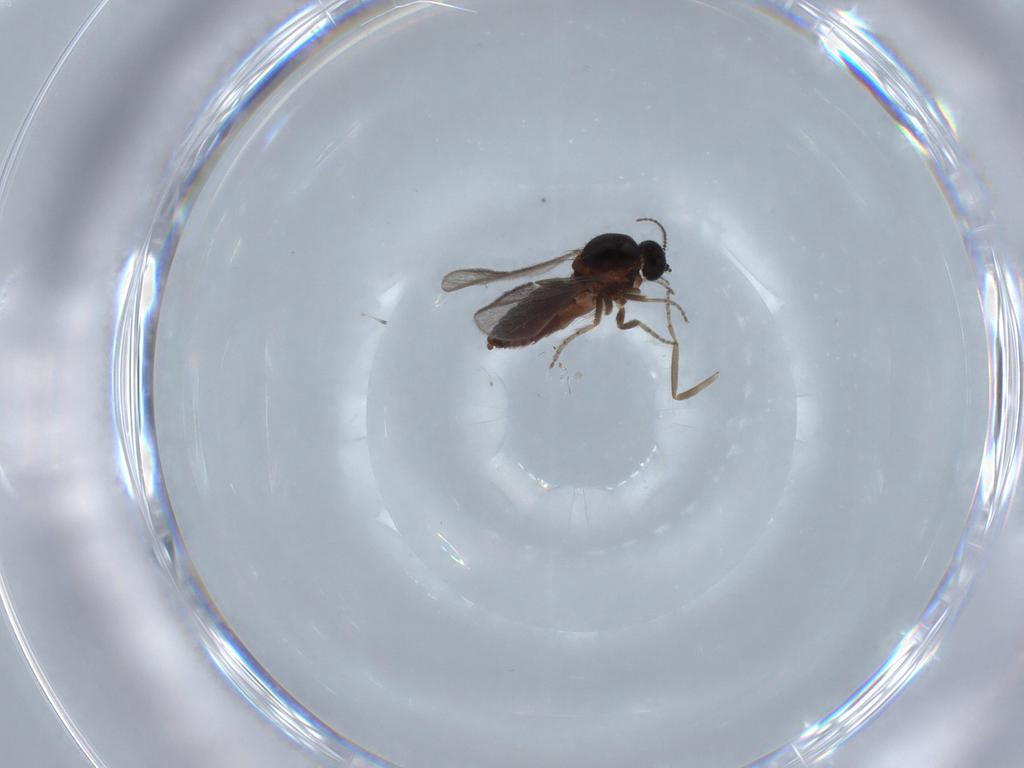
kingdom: Animalia
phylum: Arthropoda
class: Insecta
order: Diptera
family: Ceratopogonidae
